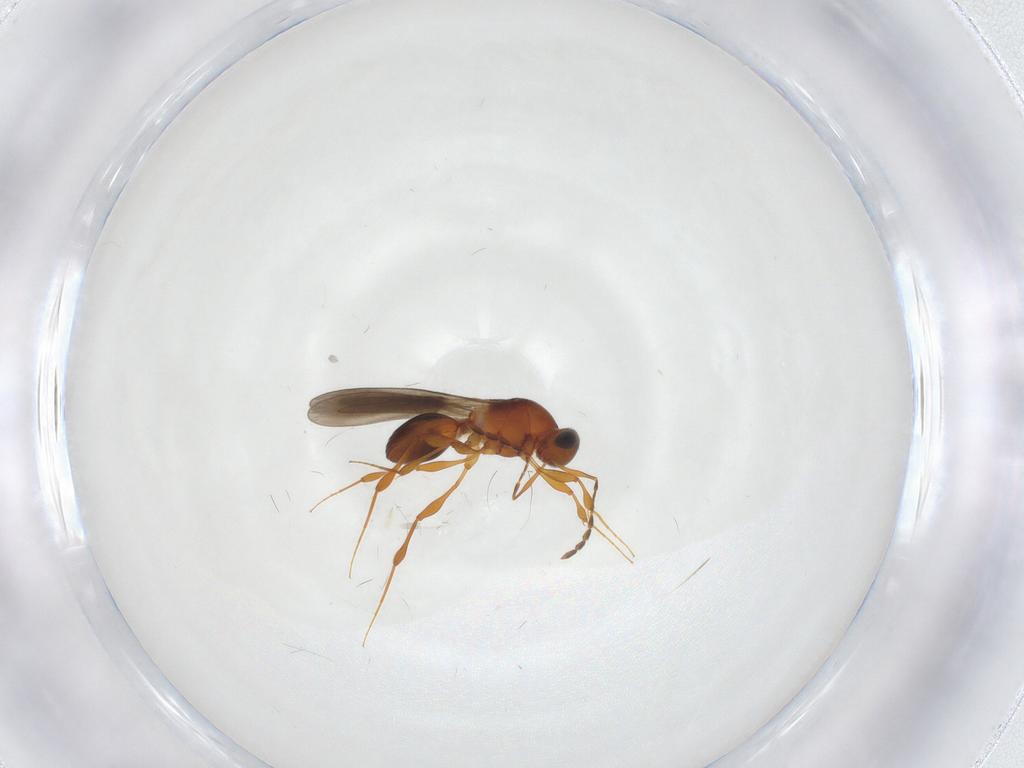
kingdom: Animalia
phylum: Arthropoda
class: Insecta
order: Hymenoptera
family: Platygastridae
